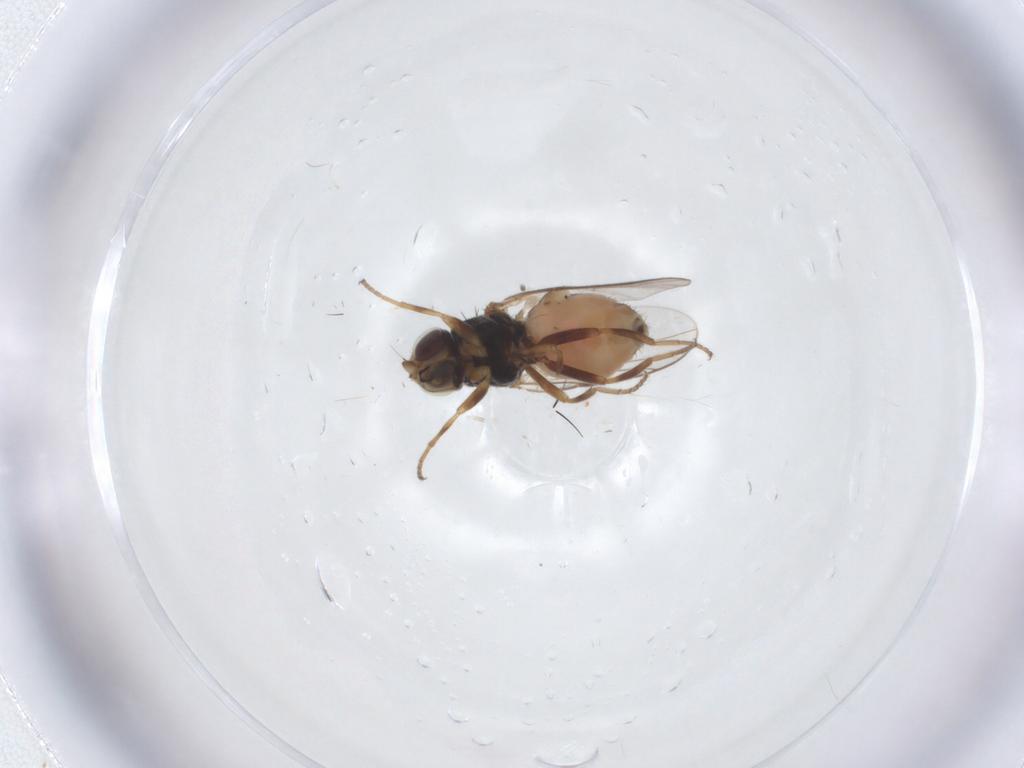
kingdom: Animalia
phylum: Arthropoda
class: Insecta
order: Diptera
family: Chloropidae
